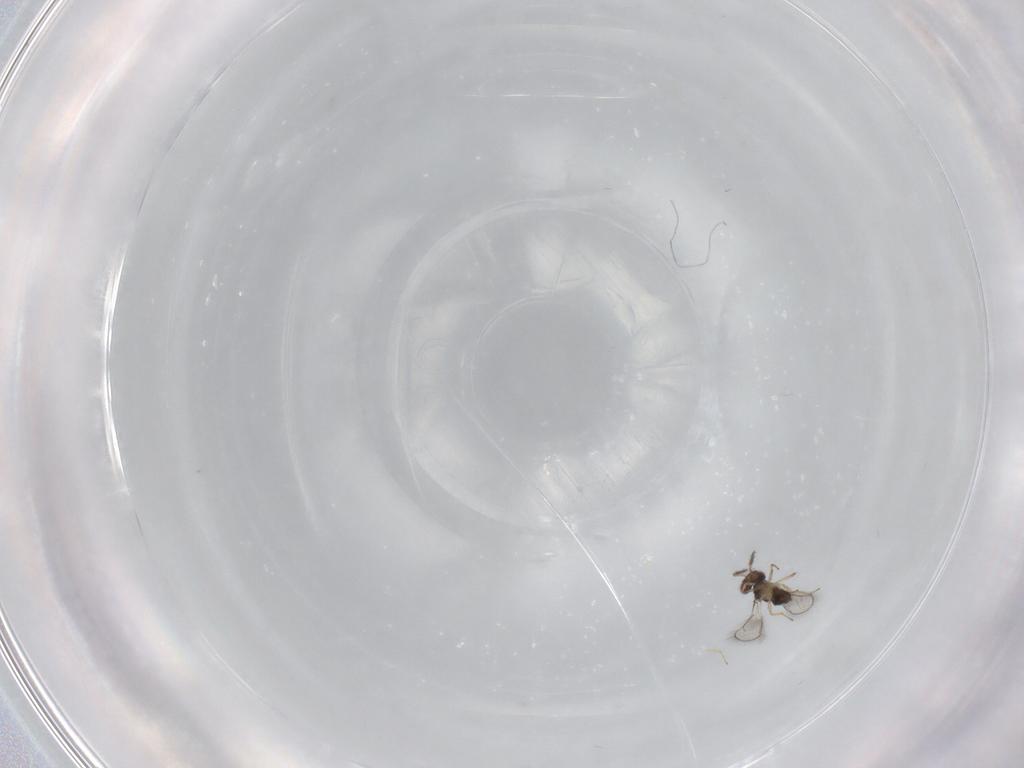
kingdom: Animalia
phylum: Arthropoda
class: Insecta
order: Hymenoptera
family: Eulophidae
